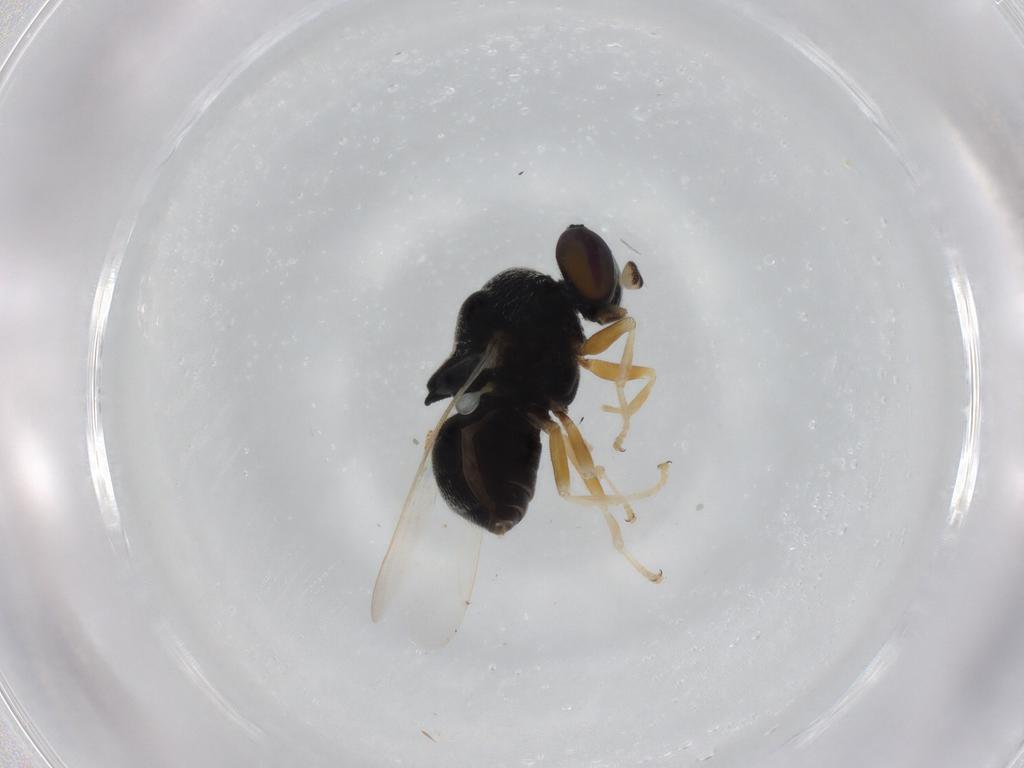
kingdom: Animalia
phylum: Arthropoda
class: Insecta
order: Diptera
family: Stratiomyidae
